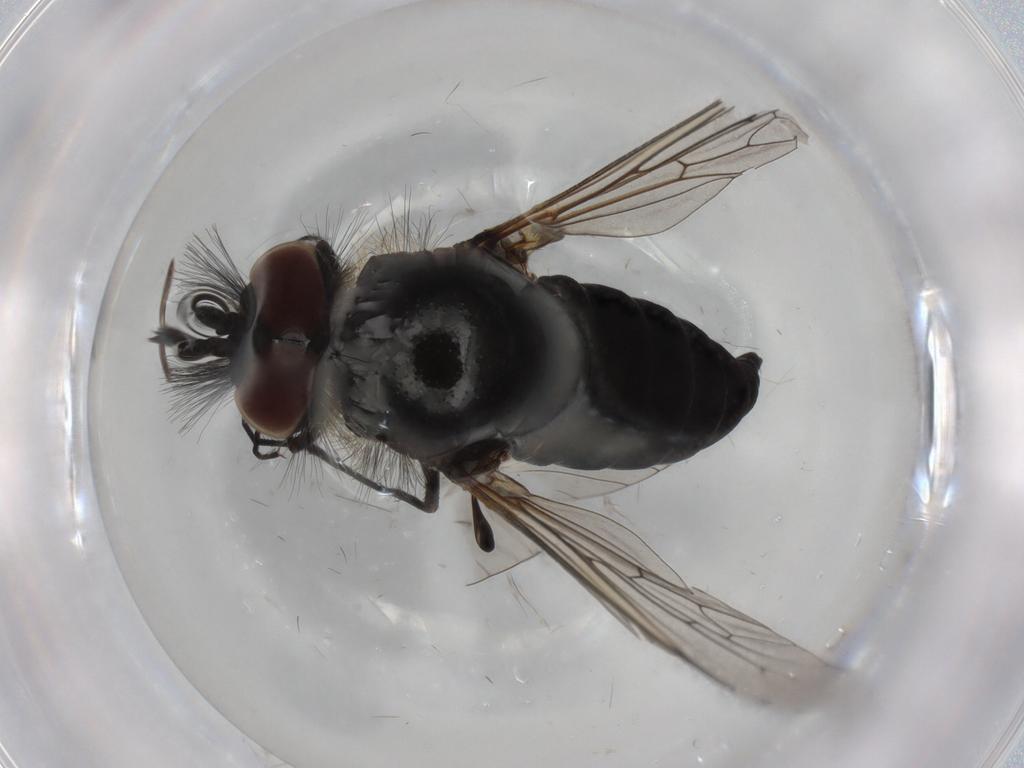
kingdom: Animalia
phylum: Arthropoda
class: Insecta
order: Diptera
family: Bombyliidae
